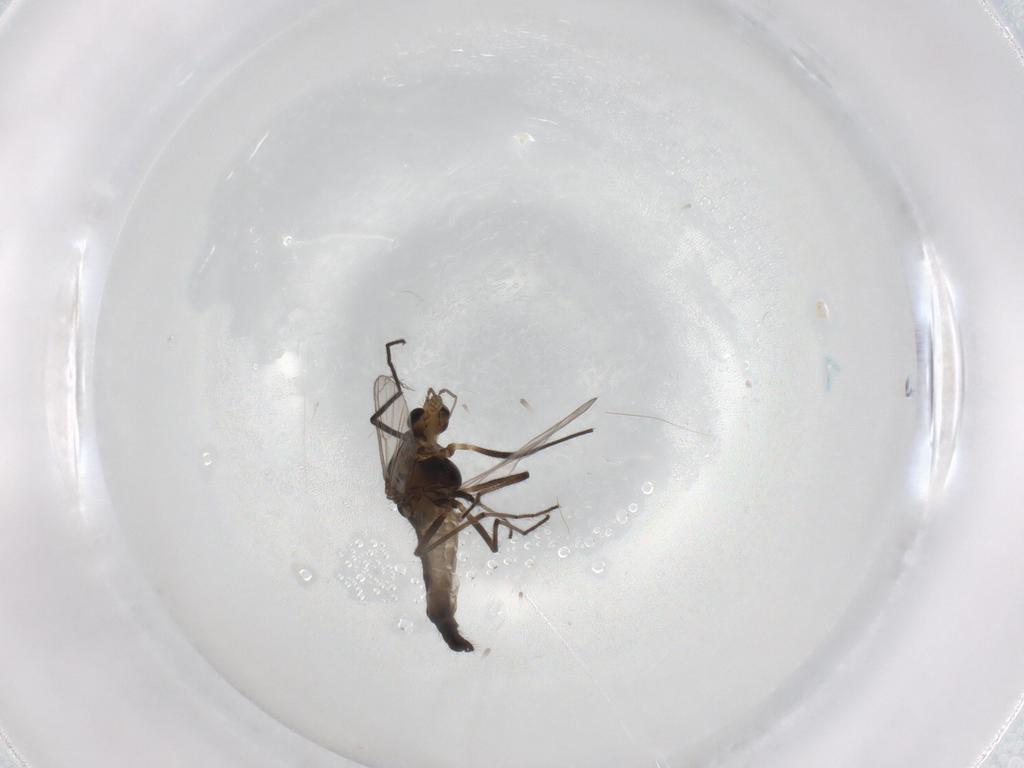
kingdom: Animalia
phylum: Arthropoda
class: Insecta
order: Diptera
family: Chironomidae
